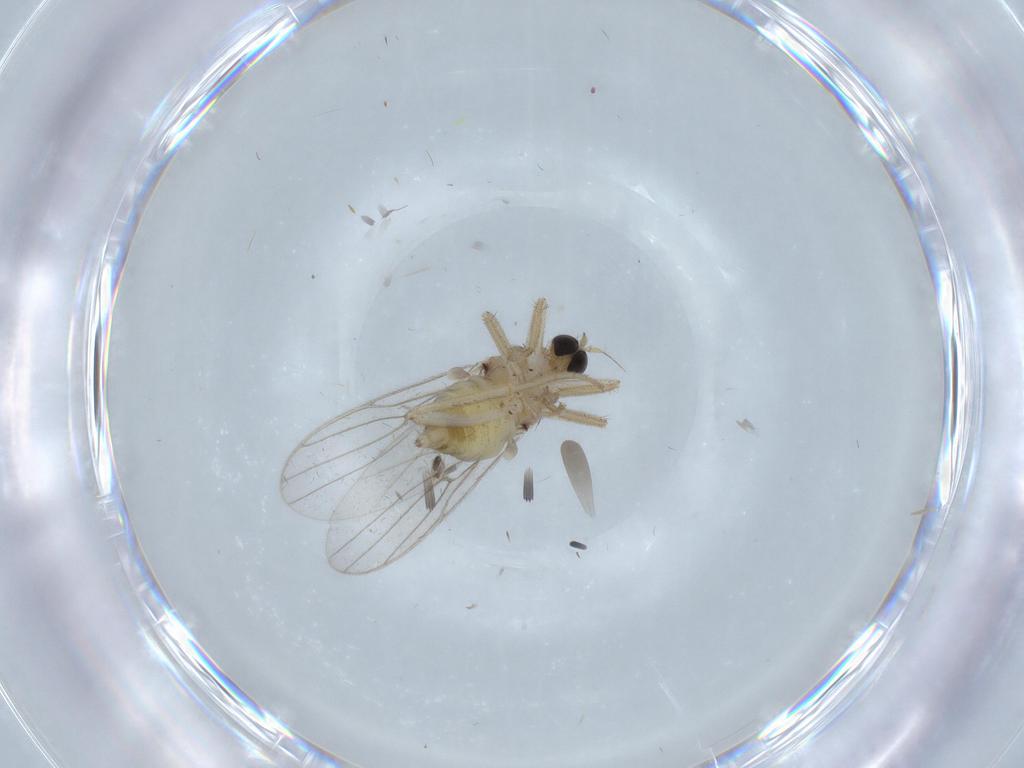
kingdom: Animalia
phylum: Arthropoda
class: Insecta
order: Diptera
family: Hybotidae
